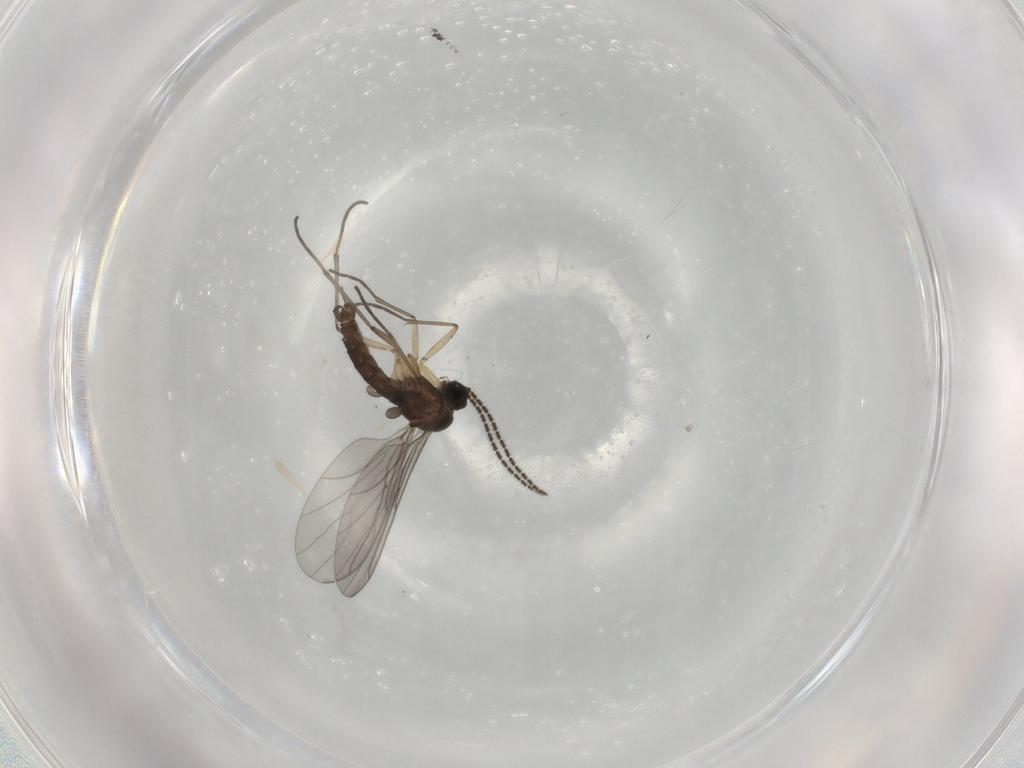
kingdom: Animalia
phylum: Arthropoda
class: Insecta
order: Diptera
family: Sciaridae
